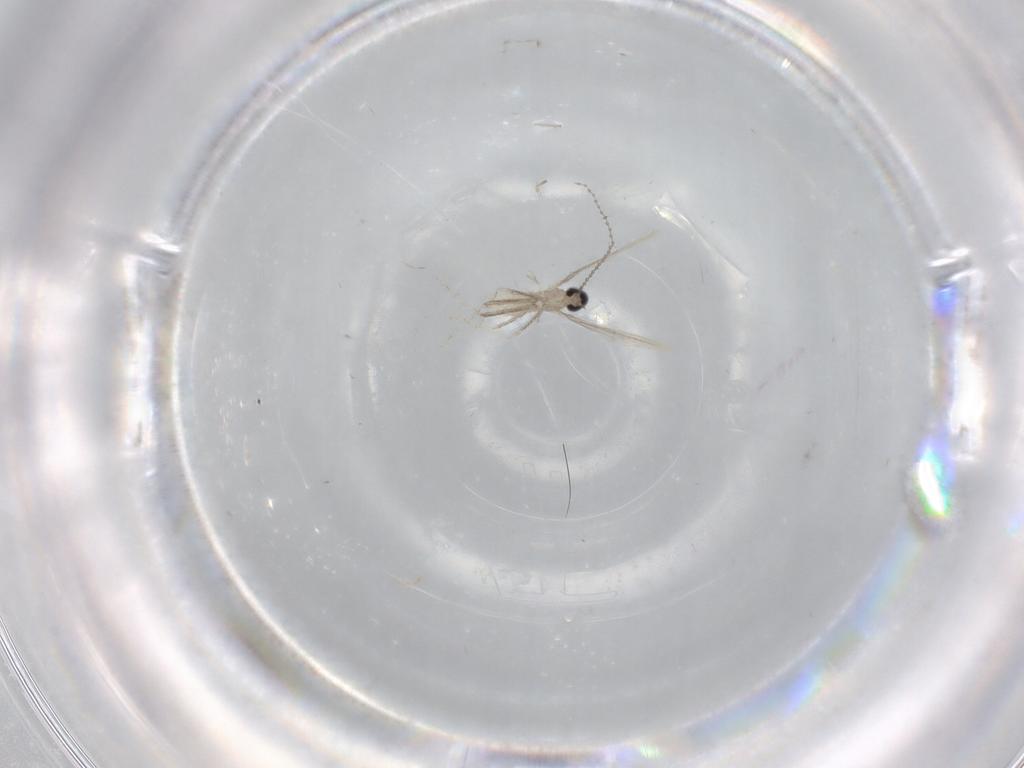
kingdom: Animalia
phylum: Arthropoda
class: Insecta
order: Diptera
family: Cecidomyiidae
